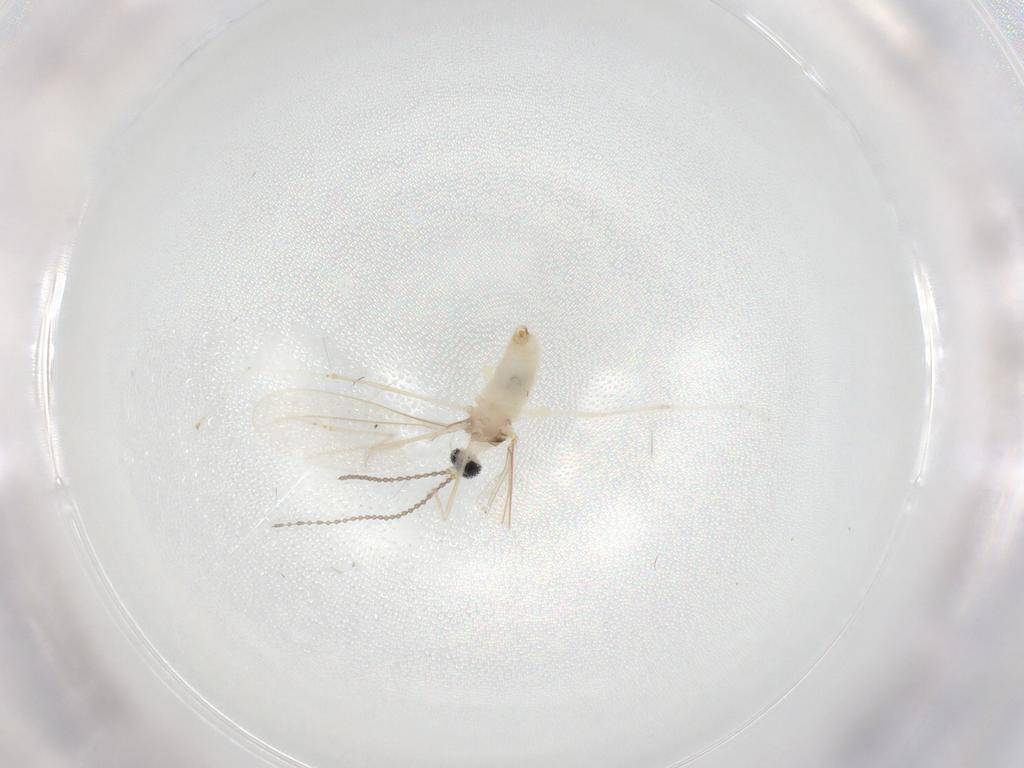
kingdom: Animalia
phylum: Arthropoda
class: Insecta
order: Diptera
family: Cecidomyiidae
